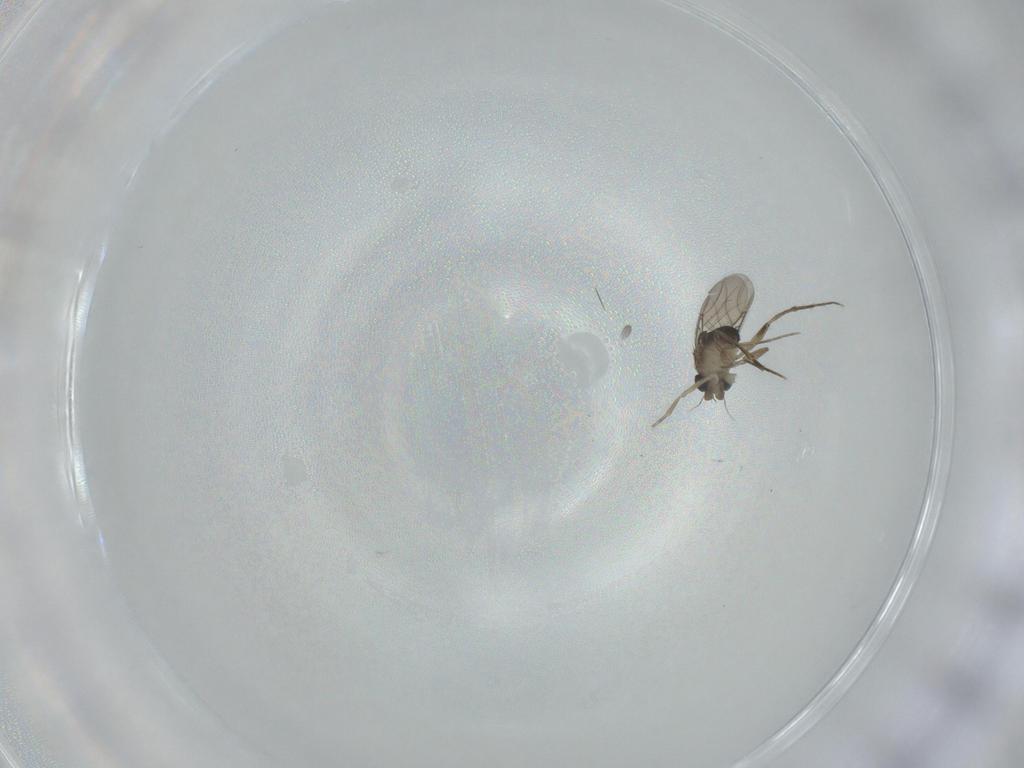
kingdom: Animalia
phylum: Arthropoda
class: Insecta
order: Diptera
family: Phoridae
